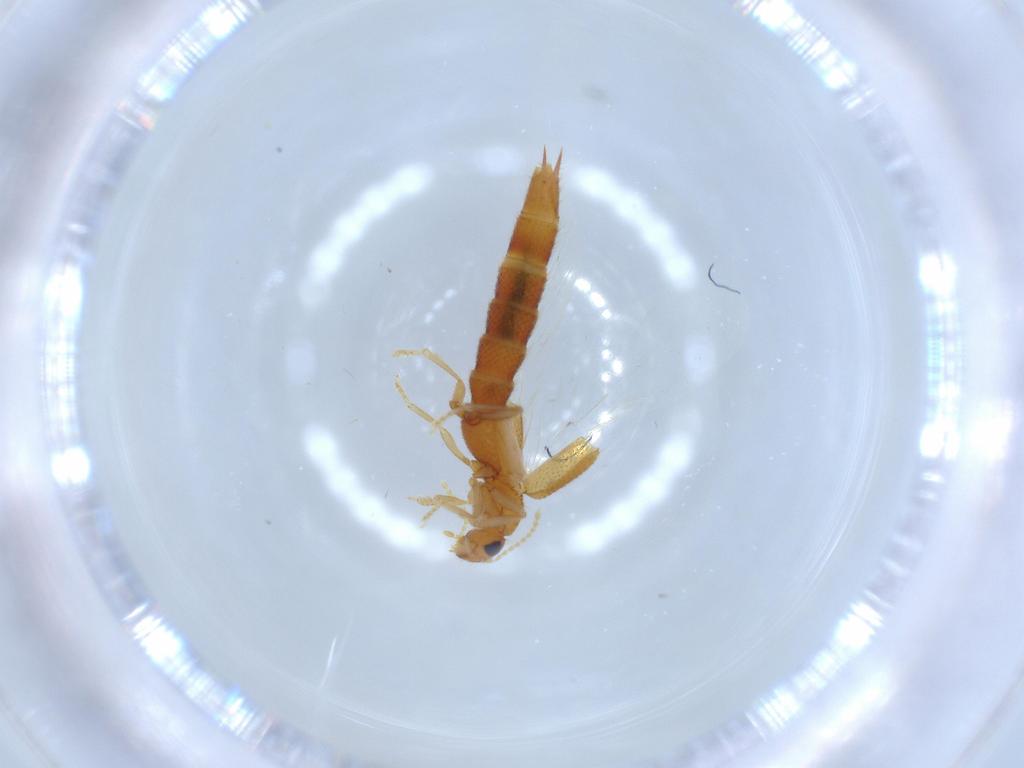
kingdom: Animalia
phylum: Arthropoda
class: Insecta
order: Coleoptera
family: Staphylinidae
